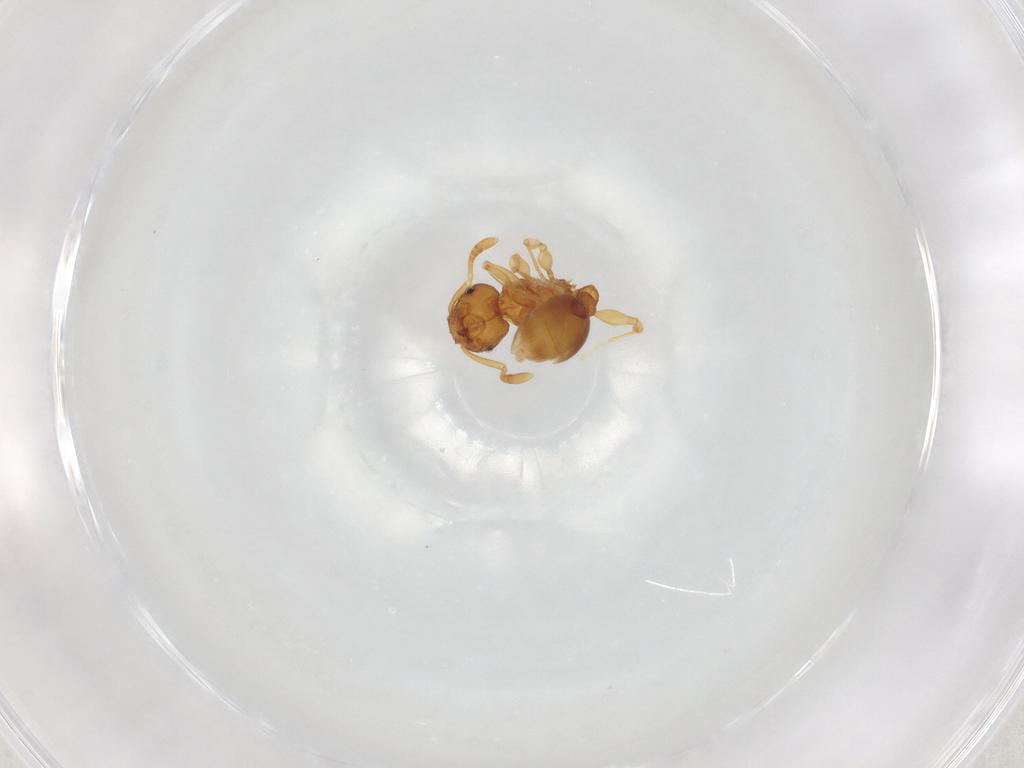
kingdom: Animalia
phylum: Arthropoda
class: Insecta
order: Hymenoptera
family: Formicidae
